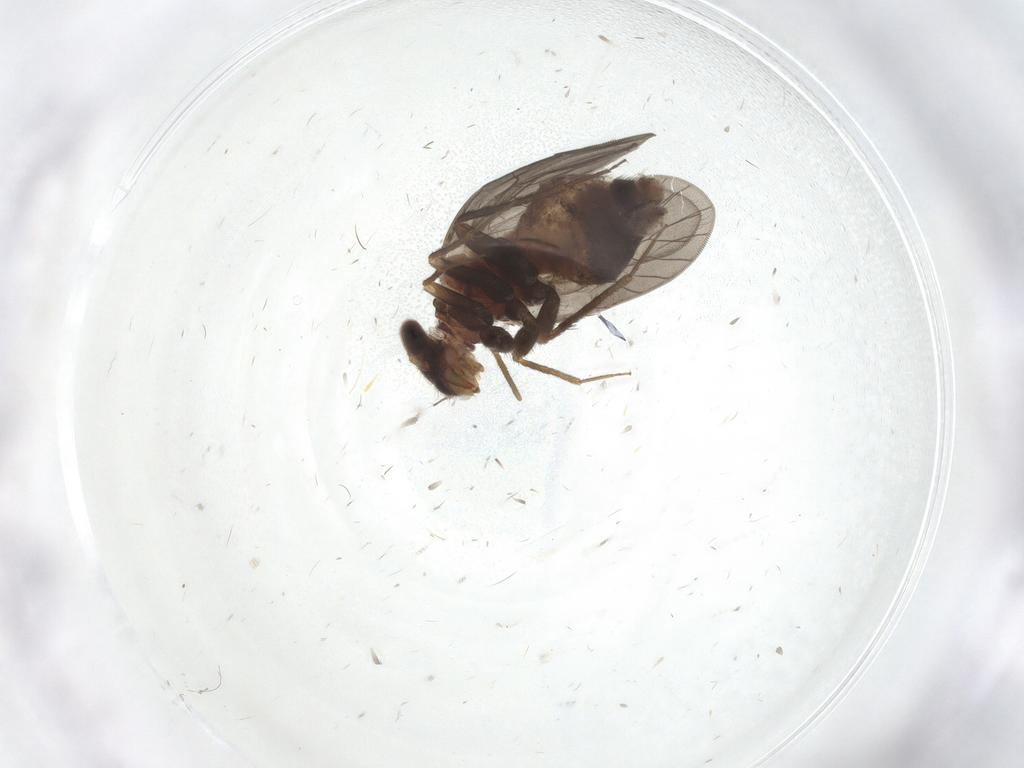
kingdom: Animalia
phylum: Arthropoda
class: Insecta
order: Psocodea
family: Lepidopsocidae
